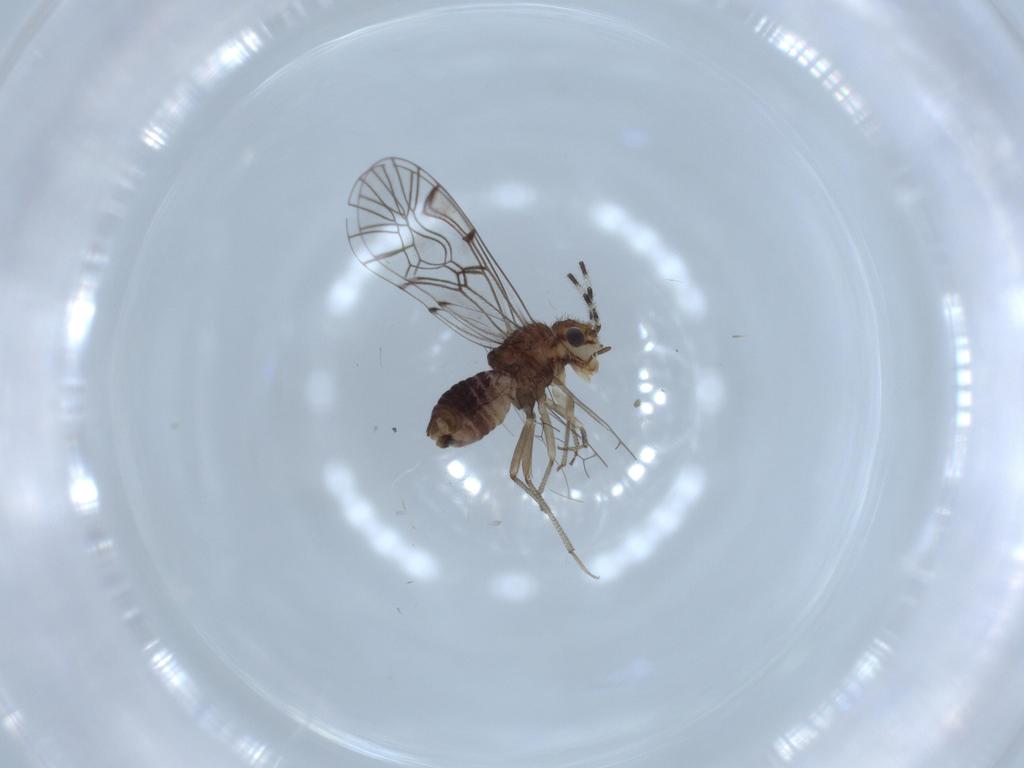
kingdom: Animalia
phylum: Arthropoda
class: Insecta
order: Psocodea
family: Amphipsocidae
